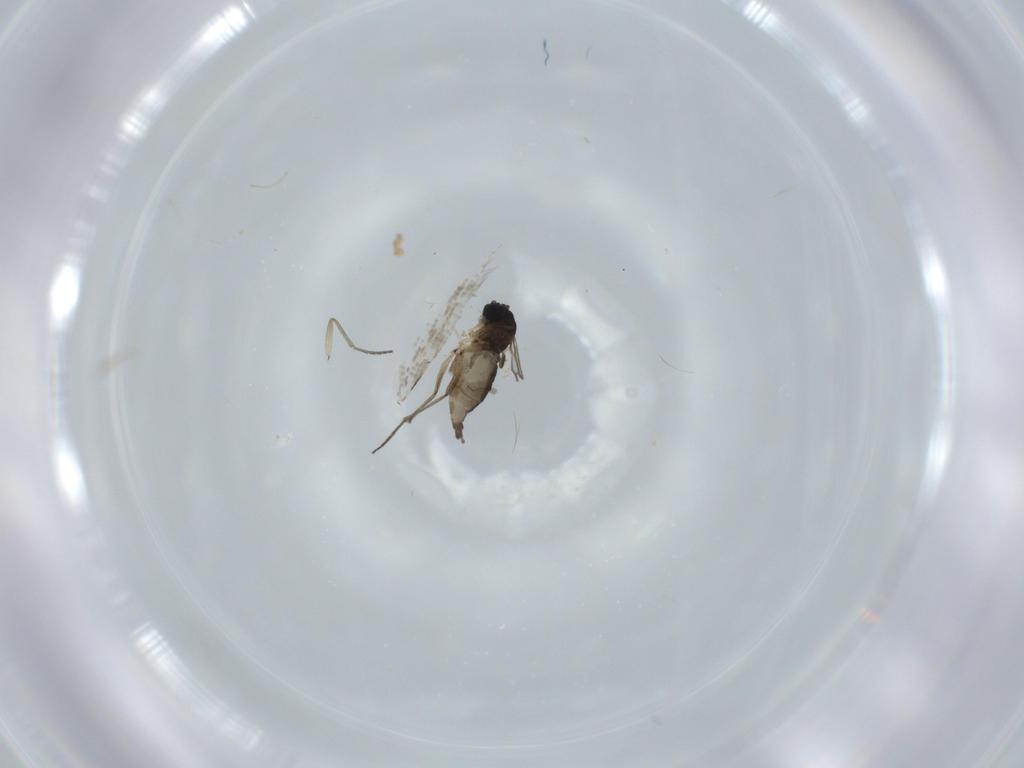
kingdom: Animalia
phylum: Arthropoda
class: Insecta
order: Diptera
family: Sciaridae
